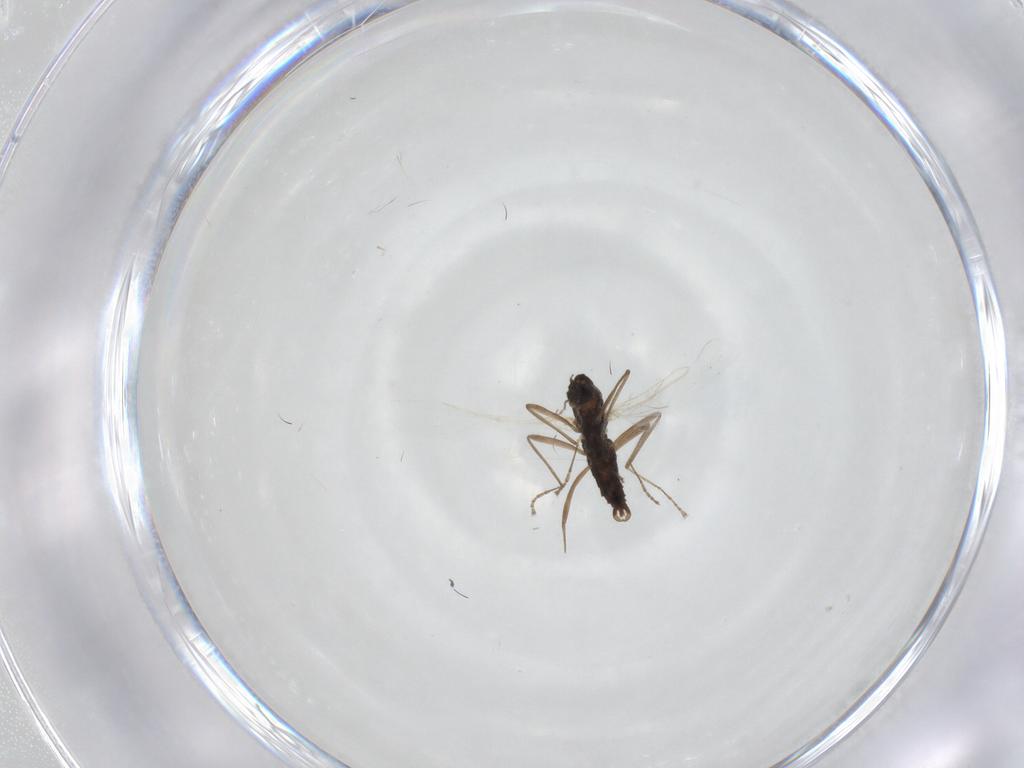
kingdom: Animalia
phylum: Arthropoda
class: Insecta
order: Diptera
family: Cecidomyiidae
